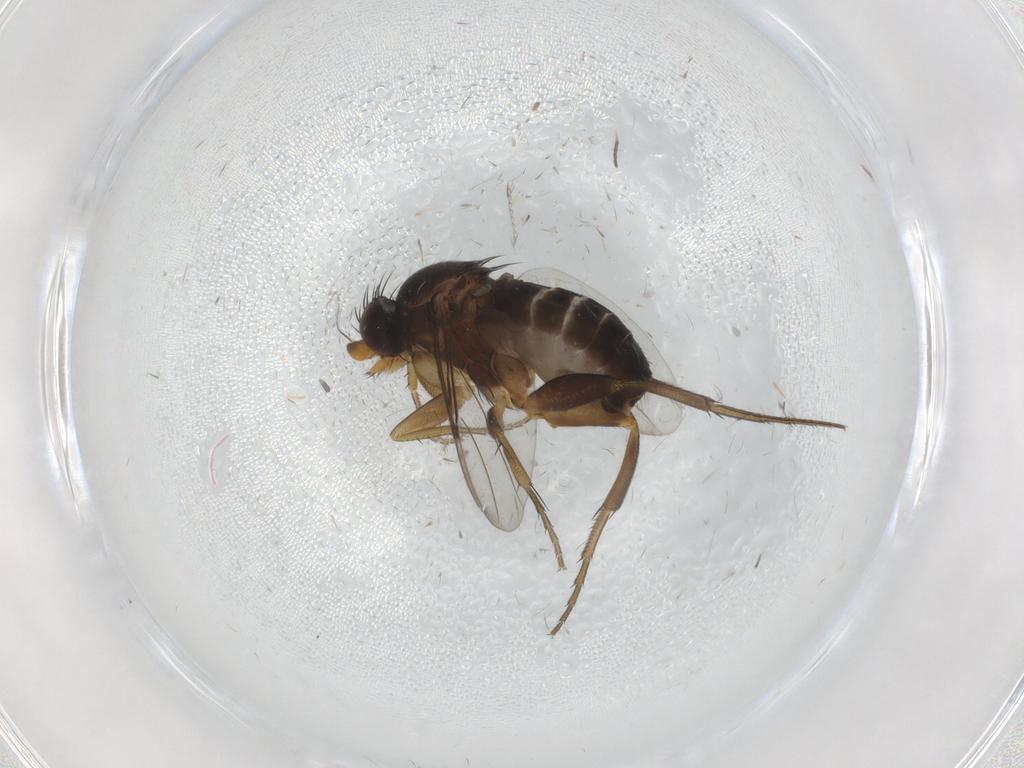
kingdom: Animalia
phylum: Arthropoda
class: Insecta
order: Diptera
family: Phoridae
